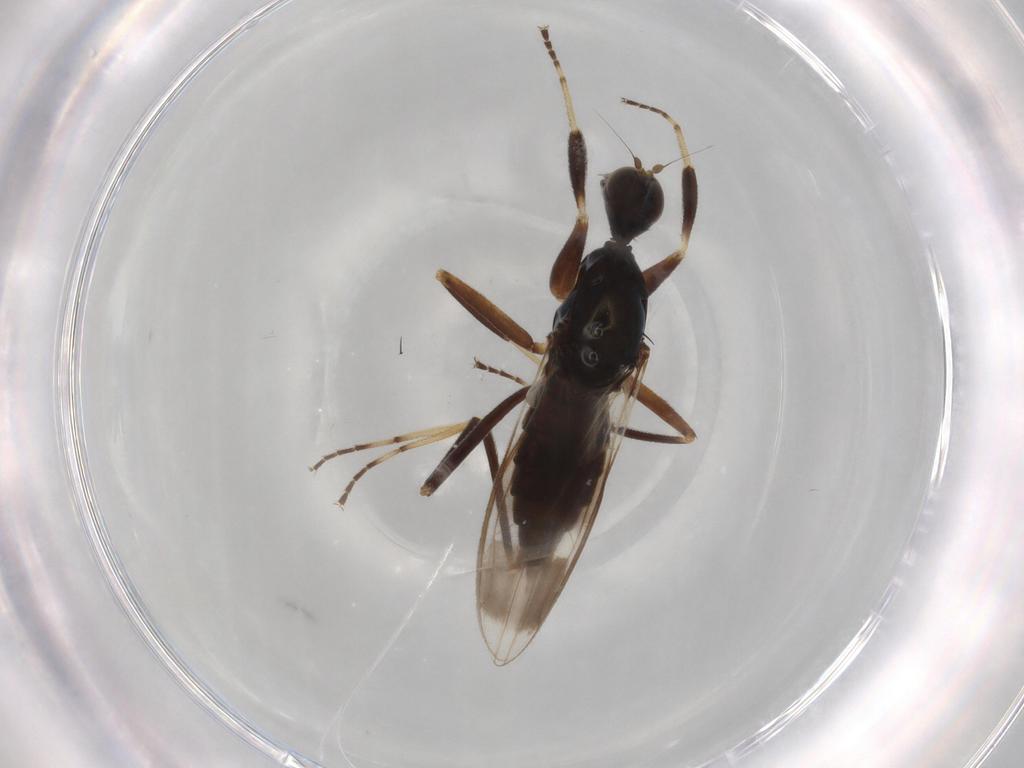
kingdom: Animalia
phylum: Arthropoda
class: Insecta
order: Diptera
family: Hybotidae
